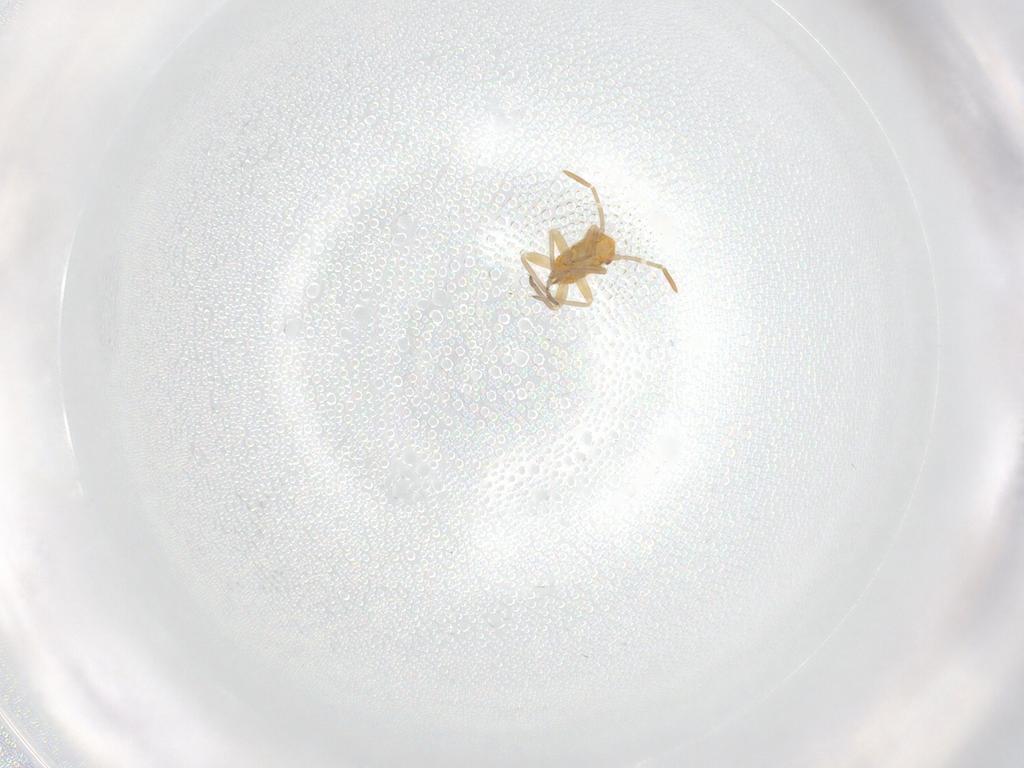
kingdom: Animalia
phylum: Arthropoda
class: Insecta
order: Hemiptera
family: Miridae
